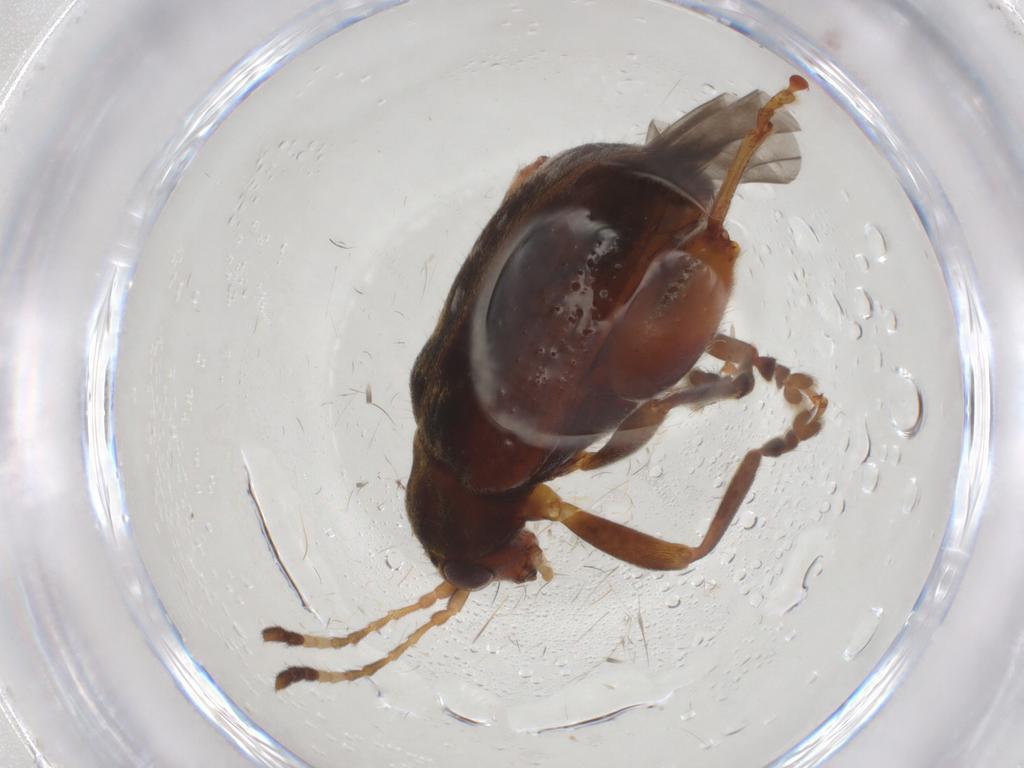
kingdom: Animalia
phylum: Arthropoda
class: Insecta
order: Coleoptera
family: Chrysomelidae
